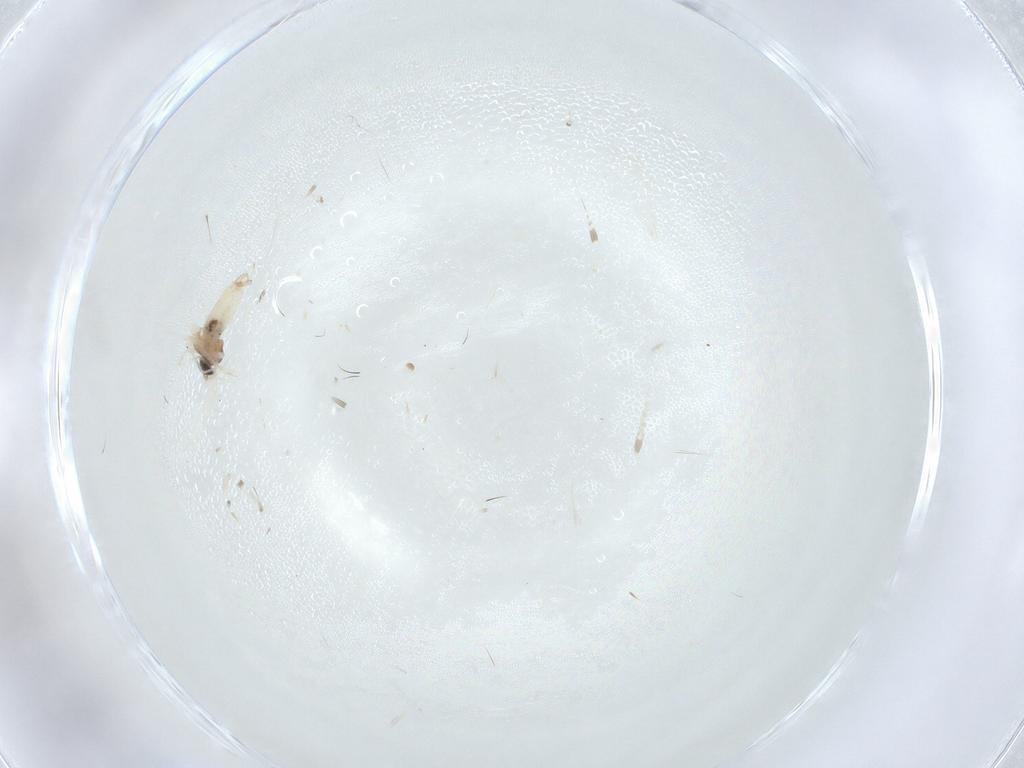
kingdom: Animalia
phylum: Arthropoda
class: Insecta
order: Diptera
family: Cecidomyiidae
